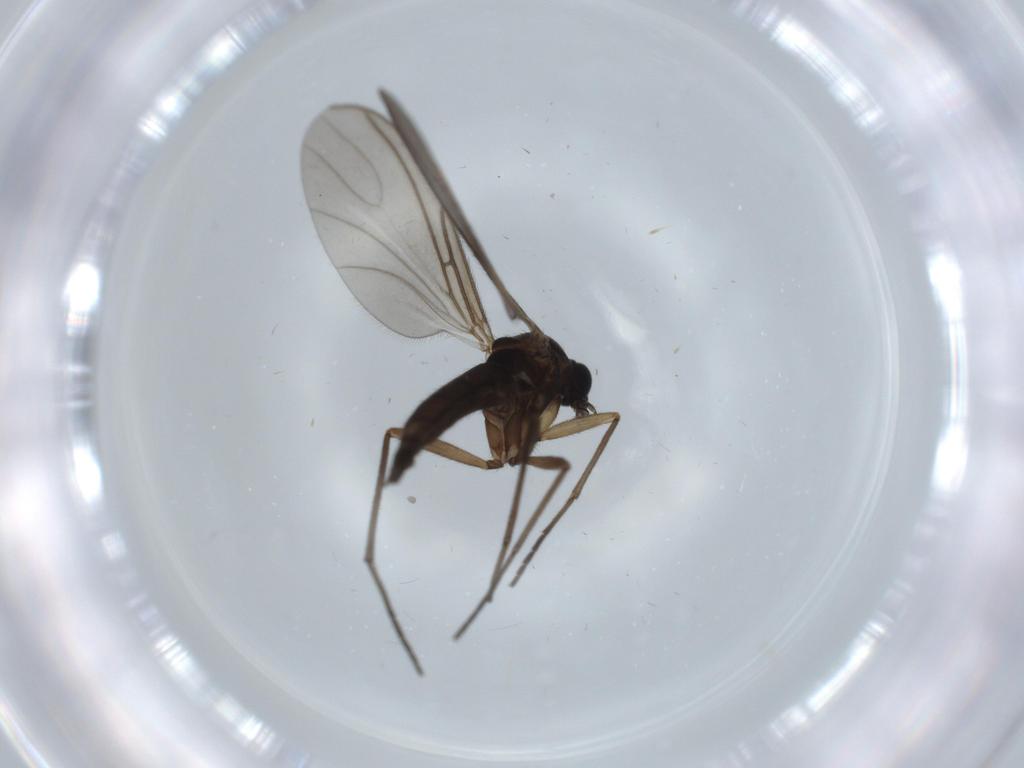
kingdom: Animalia
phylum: Arthropoda
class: Insecta
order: Diptera
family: Sciaridae
